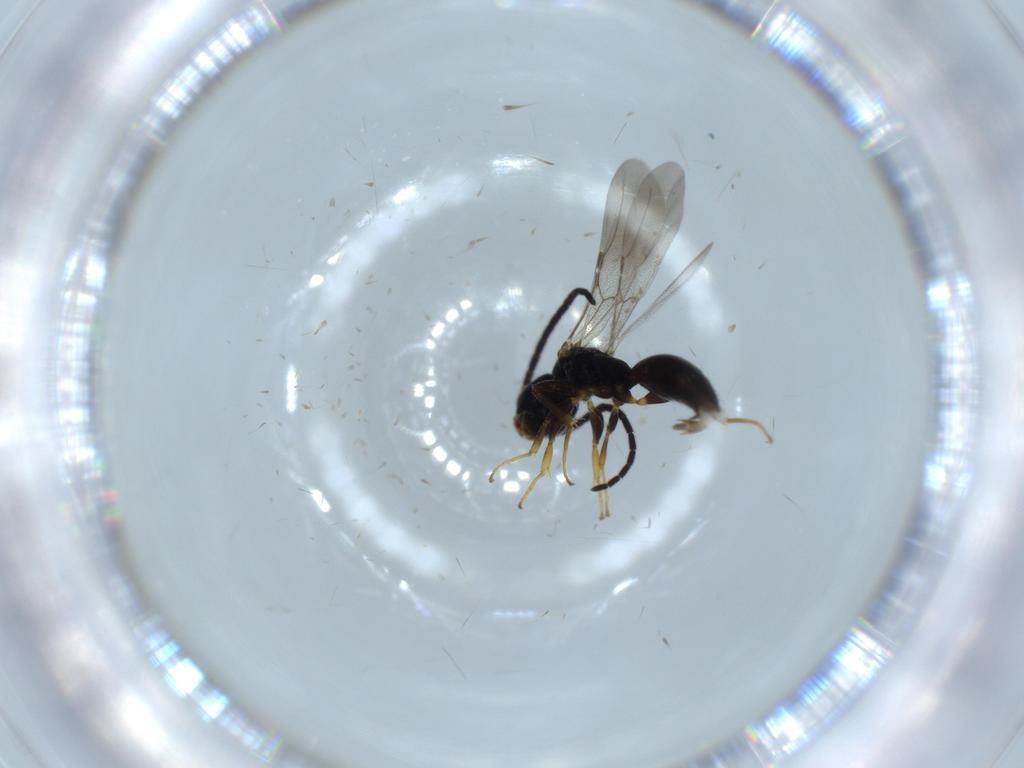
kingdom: Animalia
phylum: Arthropoda
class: Insecta
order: Hymenoptera
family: Bethylidae
